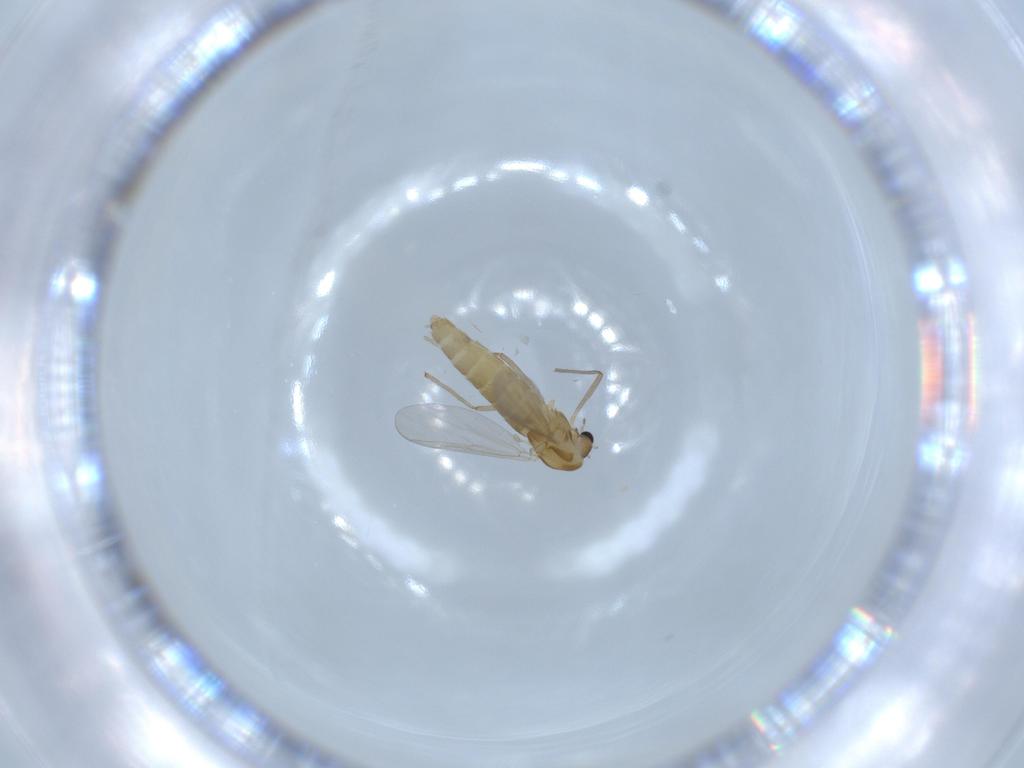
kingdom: Animalia
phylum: Arthropoda
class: Insecta
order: Diptera
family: Chironomidae
